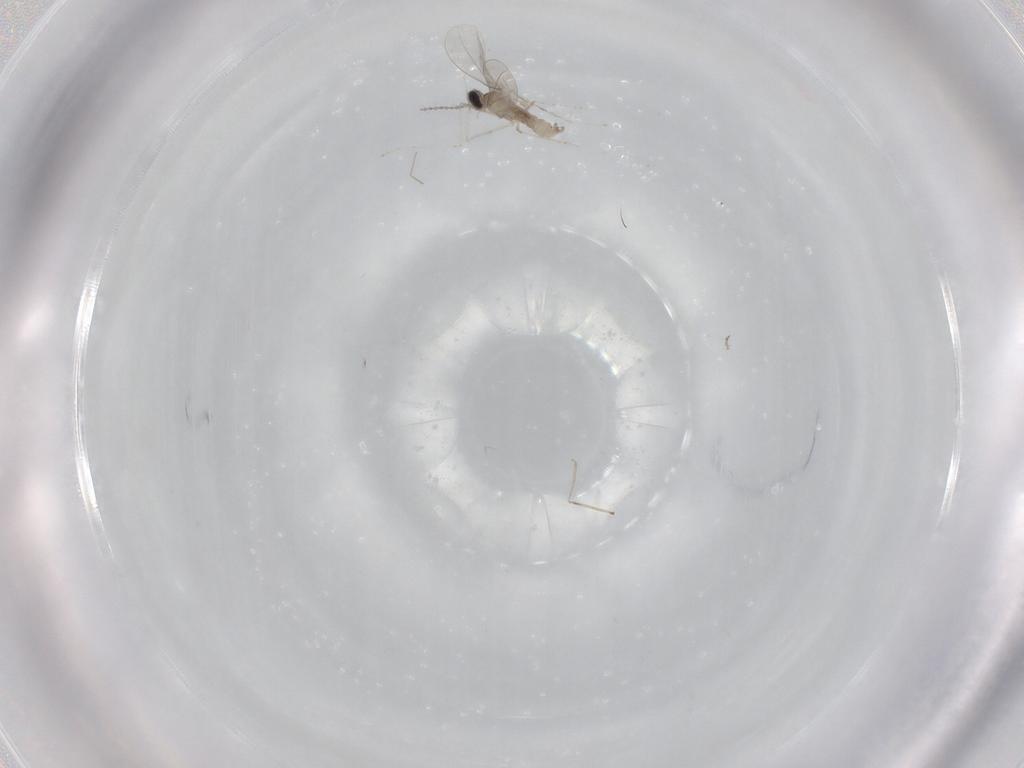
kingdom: Animalia
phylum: Arthropoda
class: Insecta
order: Diptera
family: Cecidomyiidae
